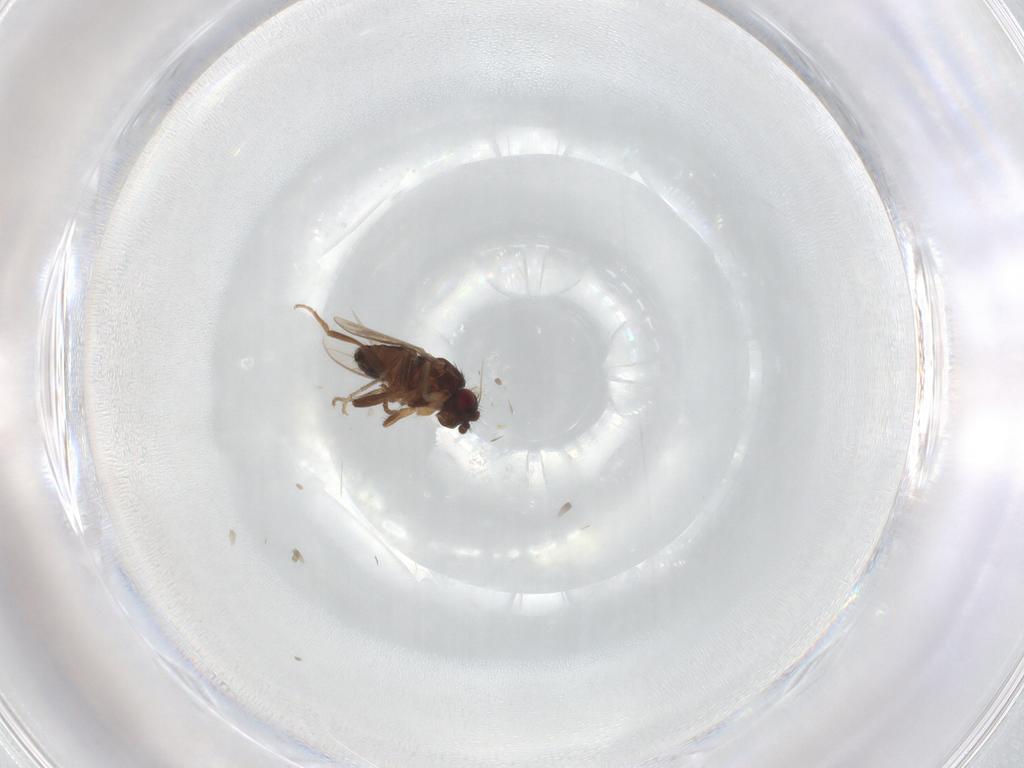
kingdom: Animalia
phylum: Arthropoda
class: Insecta
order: Diptera
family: Sphaeroceridae
